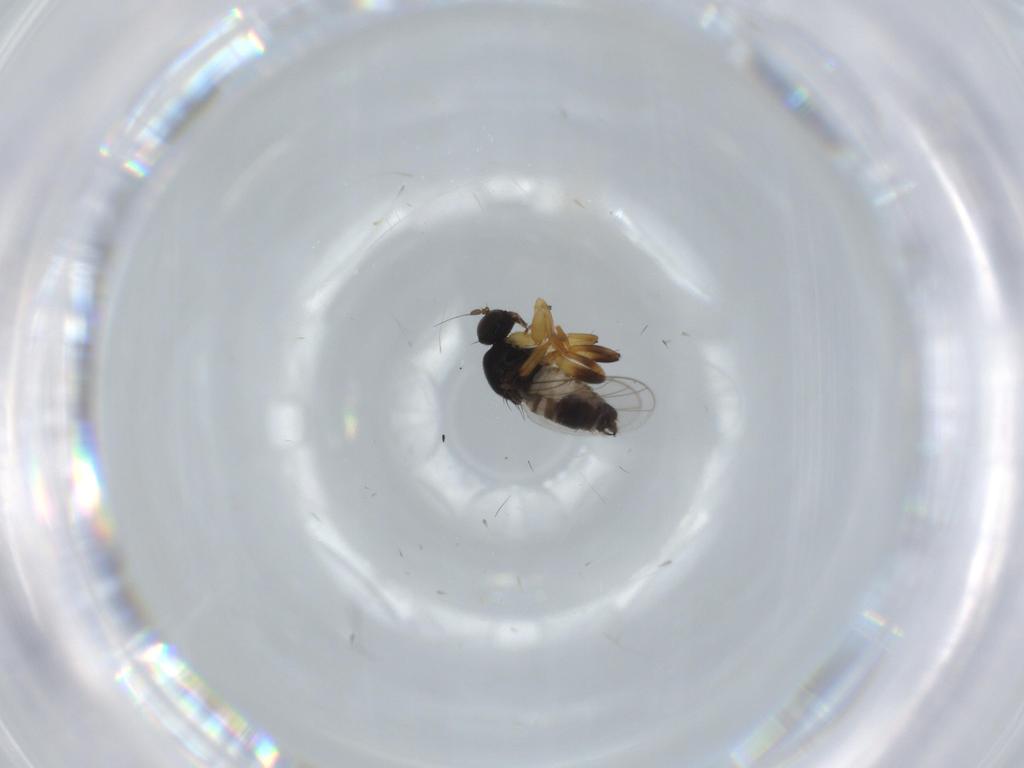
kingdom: Animalia
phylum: Arthropoda
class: Insecta
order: Diptera
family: Hybotidae
